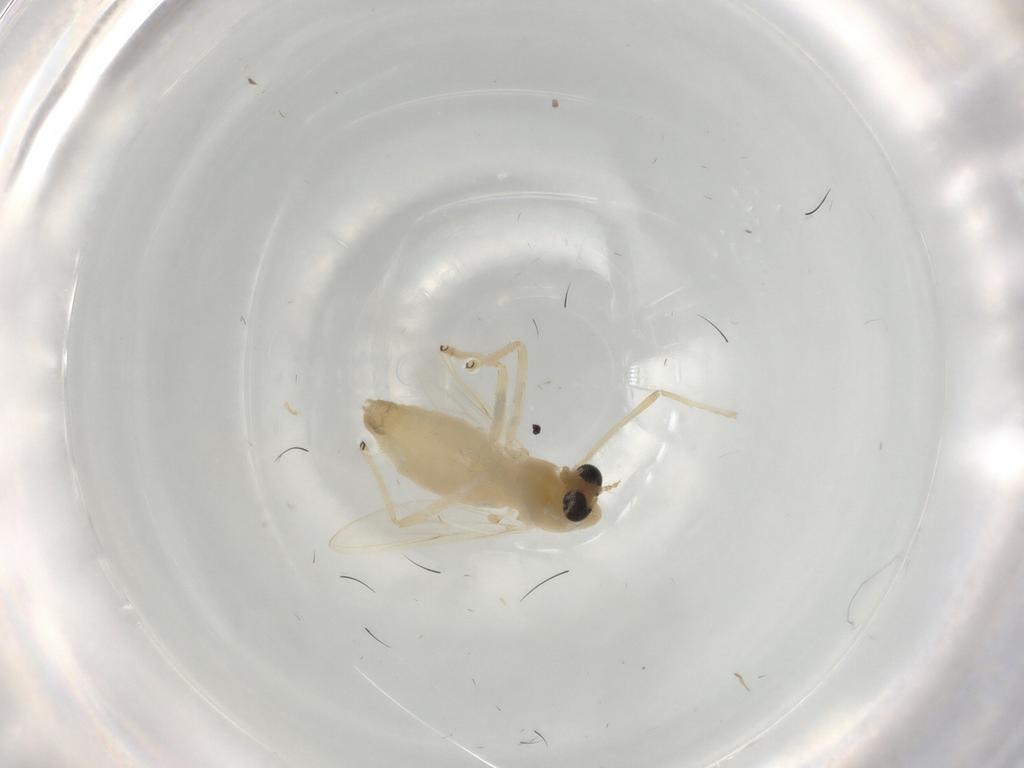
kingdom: Animalia
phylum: Arthropoda
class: Insecta
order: Diptera
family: Chironomidae
